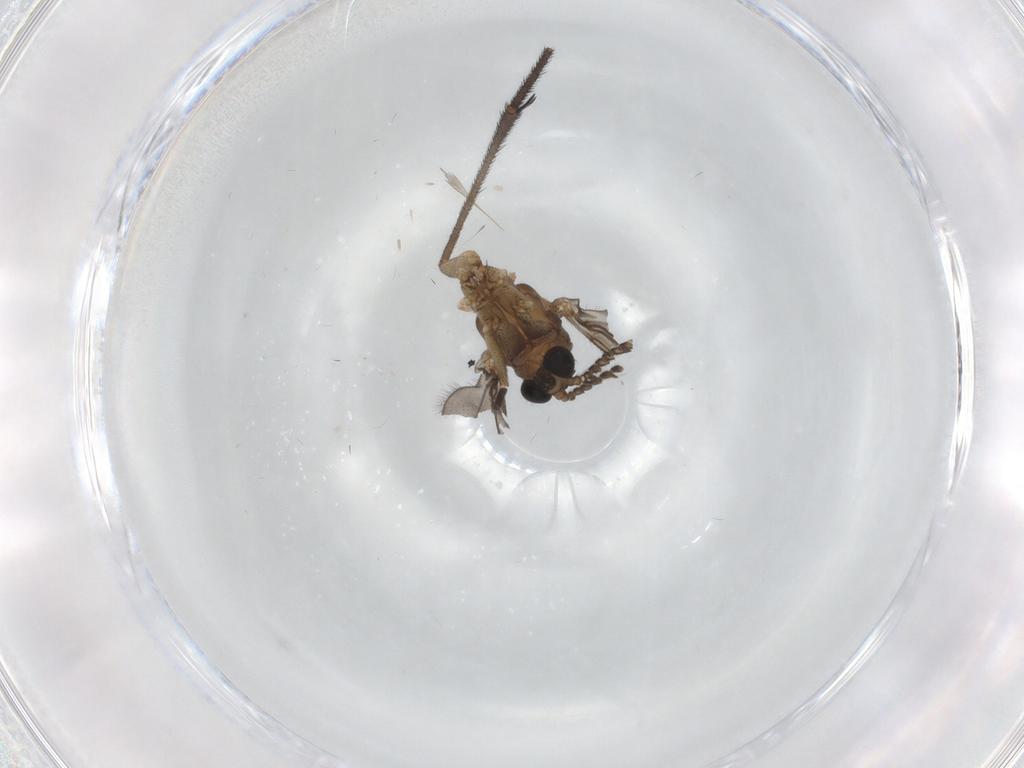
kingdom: Animalia
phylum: Arthropoda
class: Insecta
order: Diptera
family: Ditomyiidae
